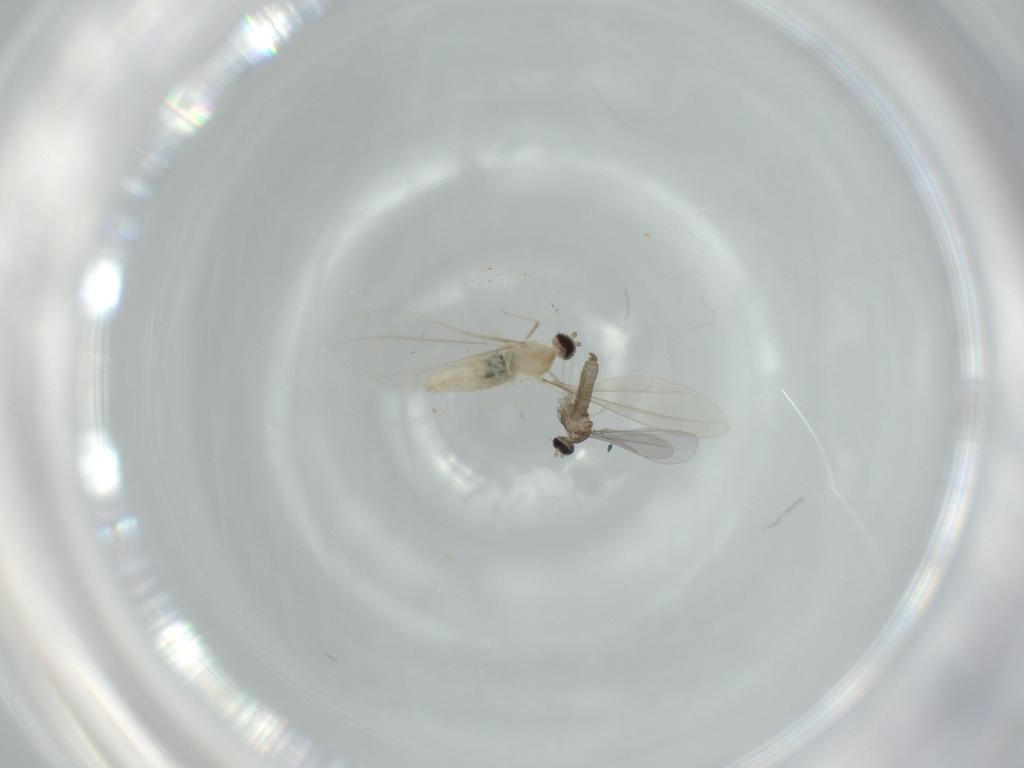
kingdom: Animalia
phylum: Arthropoda
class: Insecta
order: Diptera
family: Cecidomyiidae
